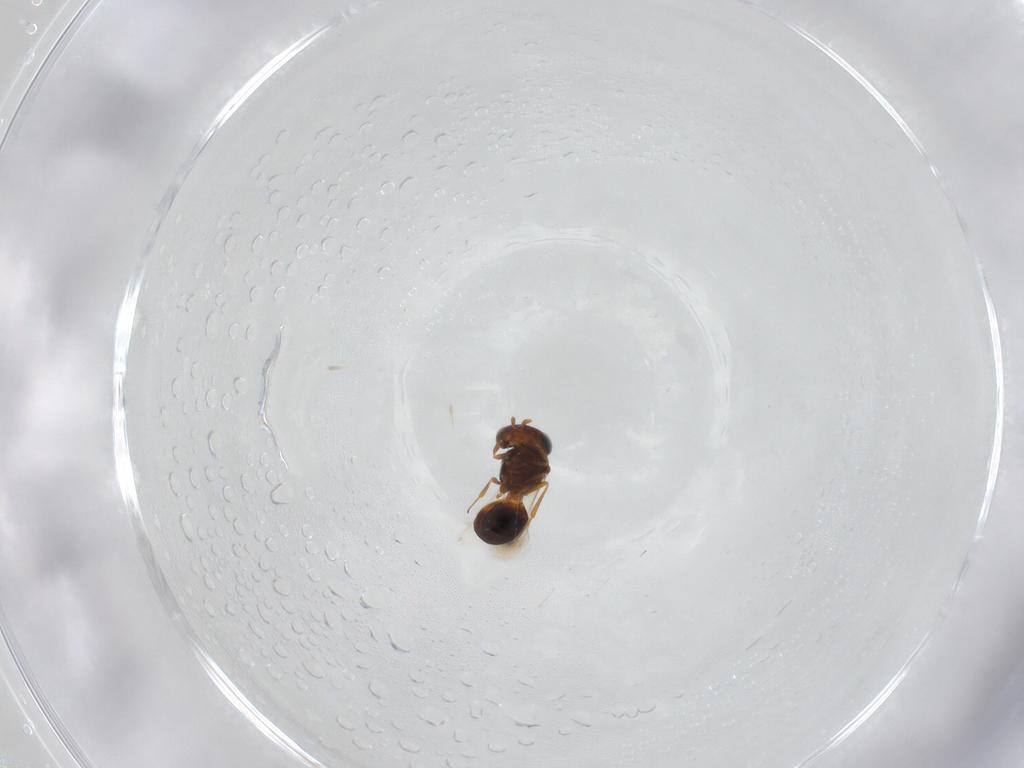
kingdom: Animalia
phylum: Arthropoda
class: Insecta
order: Hymenoptera
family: Scelionidae
